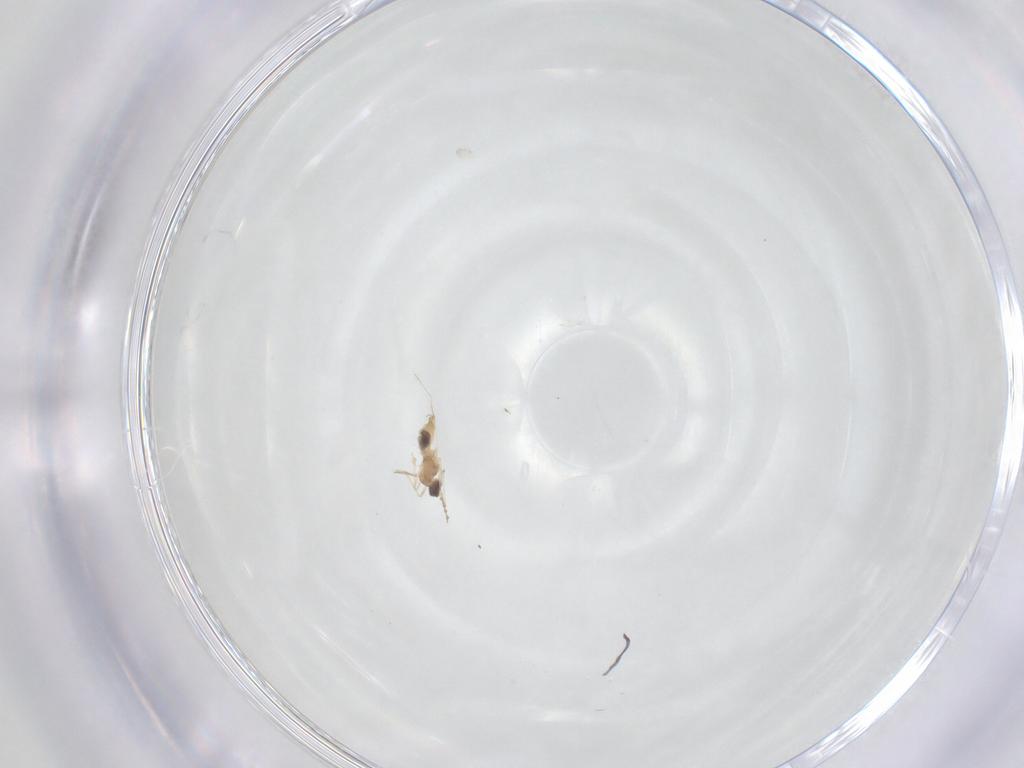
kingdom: Animalia
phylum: Arthropoda
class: Insecta
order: Diptera
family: Cecidomyiidae
